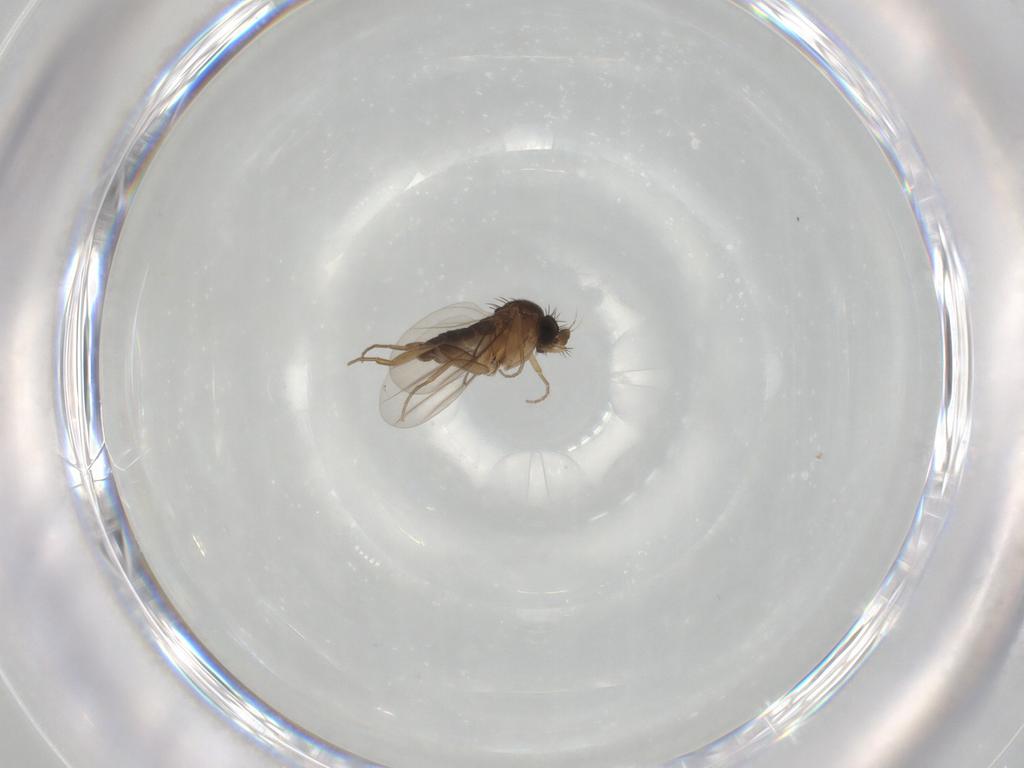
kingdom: Animalia
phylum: Arthropoda
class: Insecta
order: Diptera
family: Phoridae
